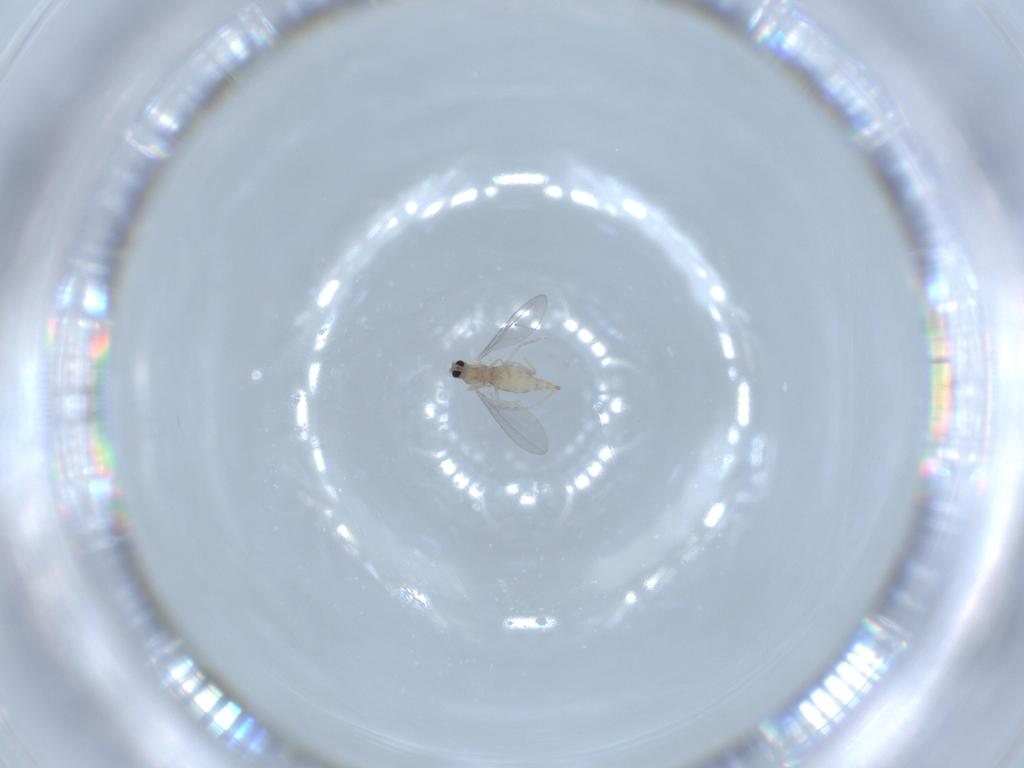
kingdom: Animalia
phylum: Arthropoda
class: Insecta
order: Diptera
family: Cecidomyiidae
